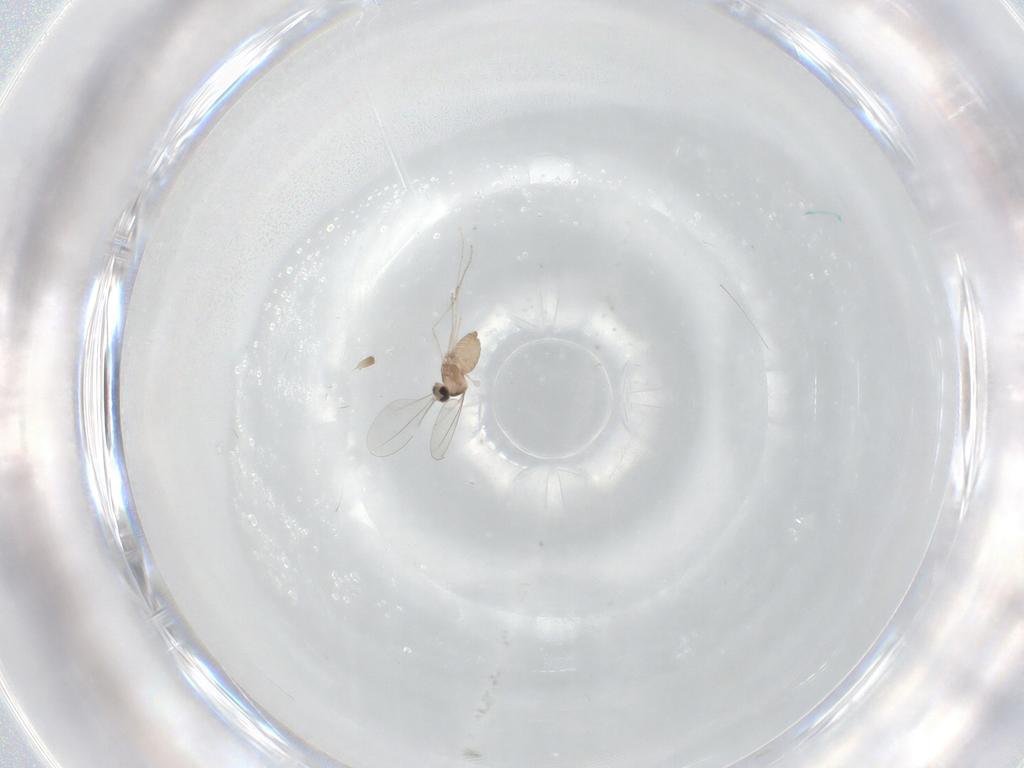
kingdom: Animalia
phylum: Arthropoda
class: Insecta
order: Diptera
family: Cecidomyiidae
